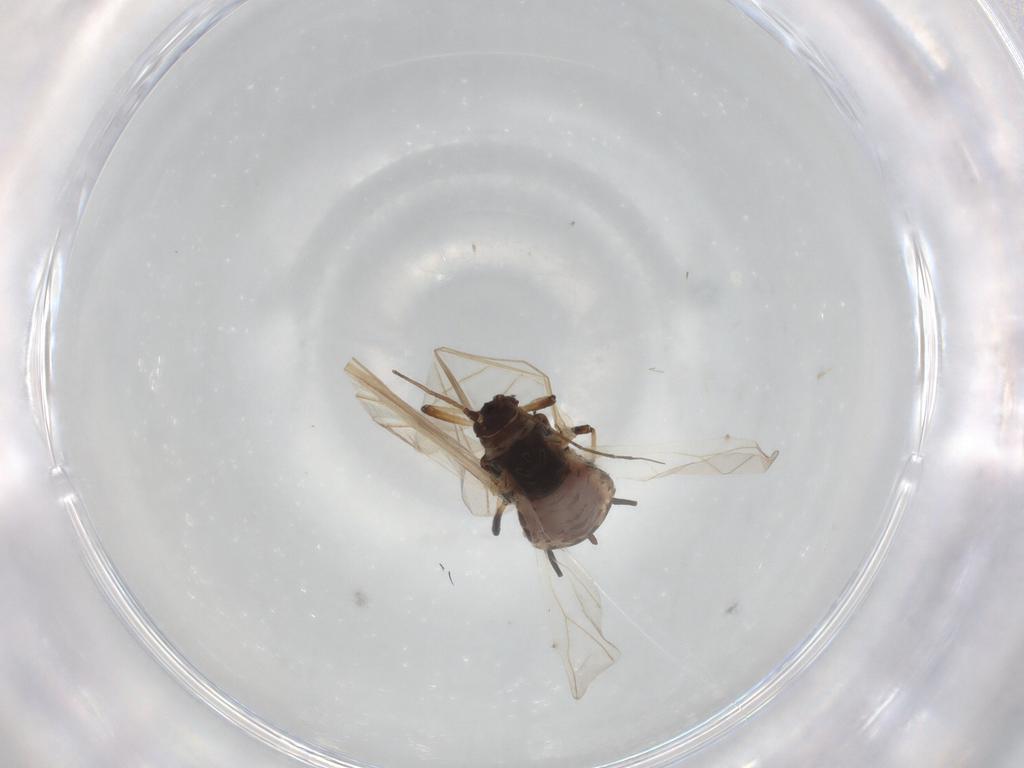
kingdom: Animalia
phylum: Arthropoda
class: Insecta
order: Hemiptera
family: Aphididae
